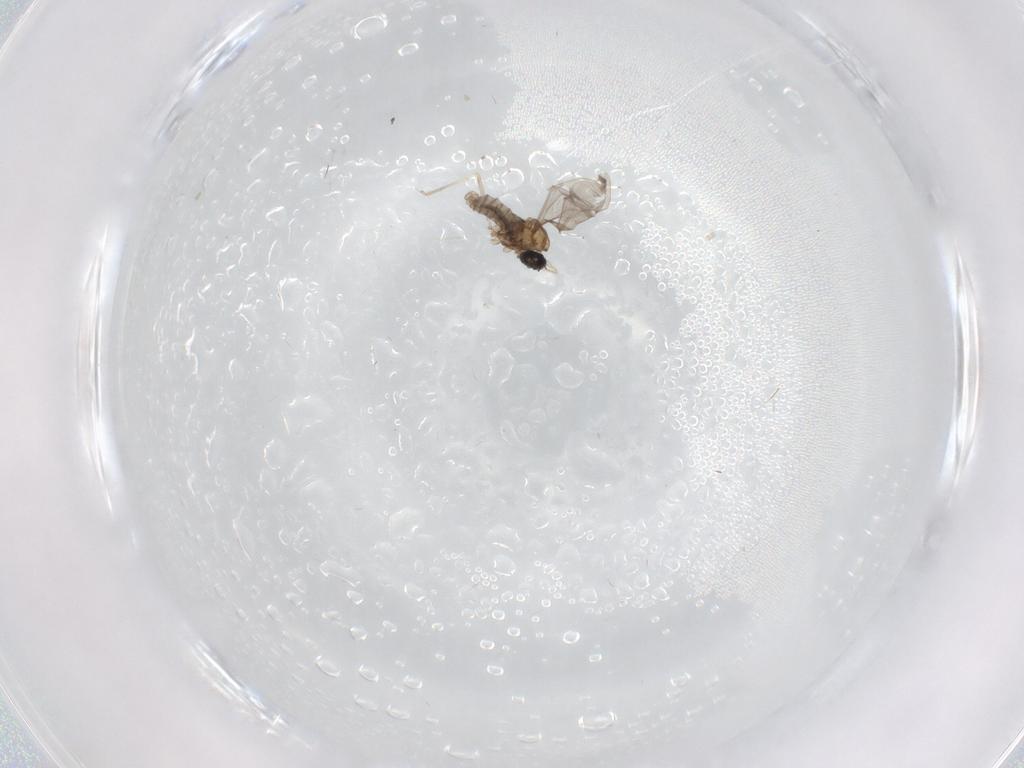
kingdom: Animalia
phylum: Arthropoda
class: Insecta
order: Diptera
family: Cecidomyiidae
